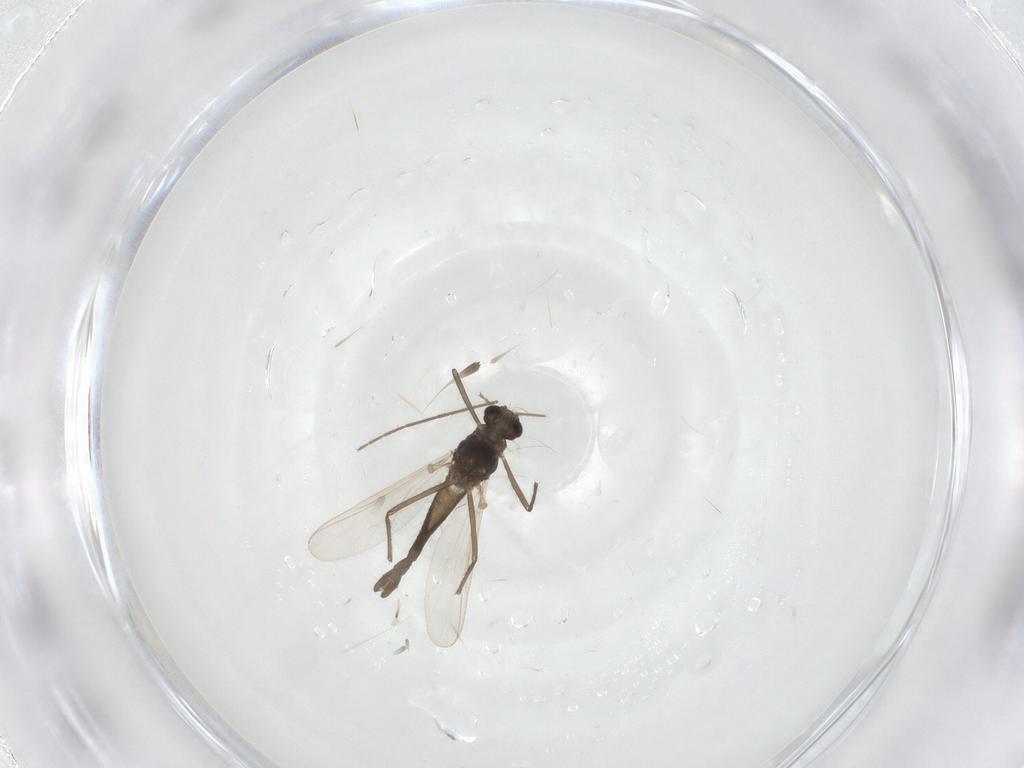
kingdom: Animalia
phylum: Arthropoda
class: Insecta
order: Diptera
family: Chironomidae
